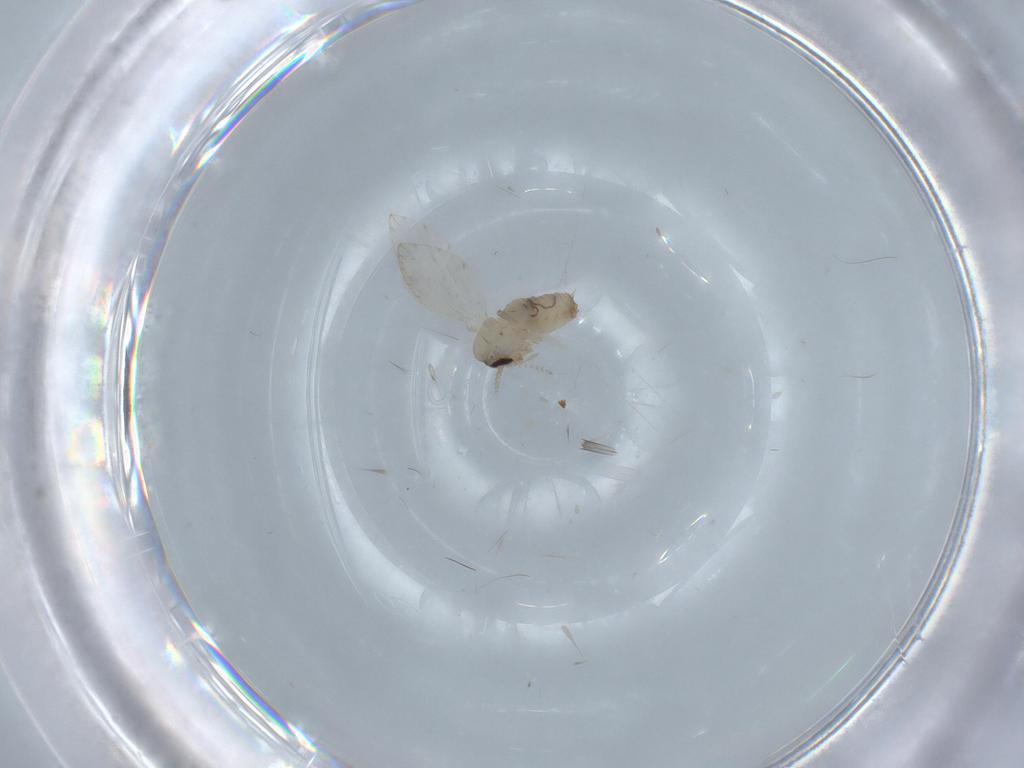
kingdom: Animalia
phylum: Arthropoda
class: Insecta
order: Diptera
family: Psychodidae
